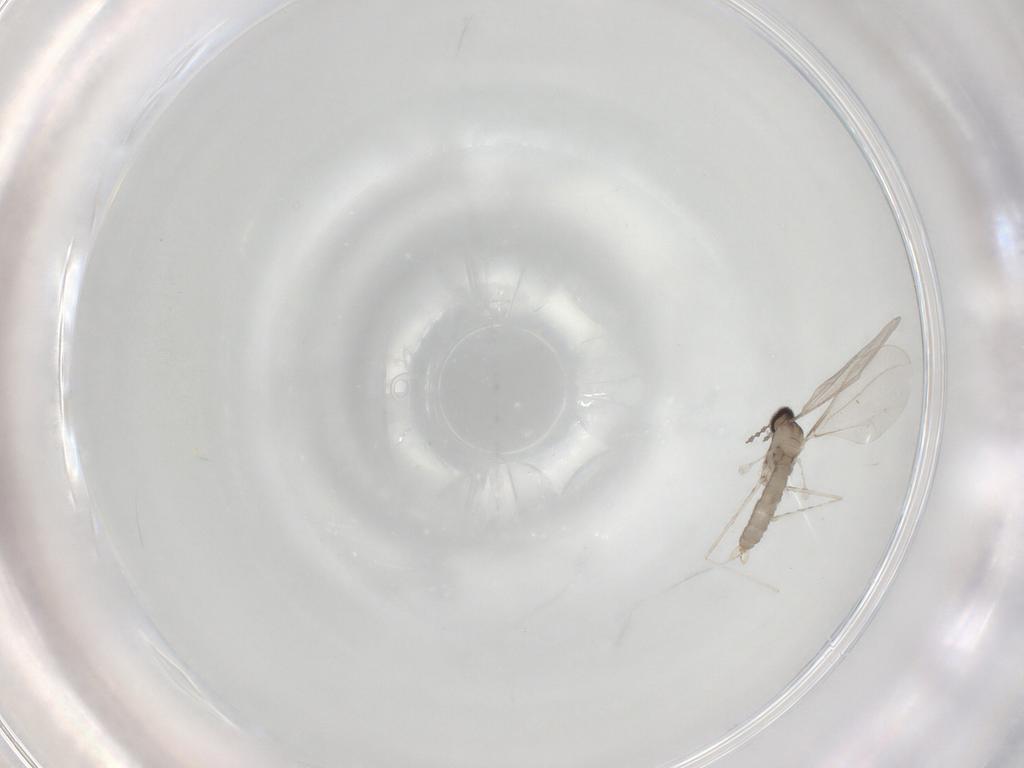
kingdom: Animalia
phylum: Arthropoda
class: Insecta
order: Diptera
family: Cecidomyiidae
